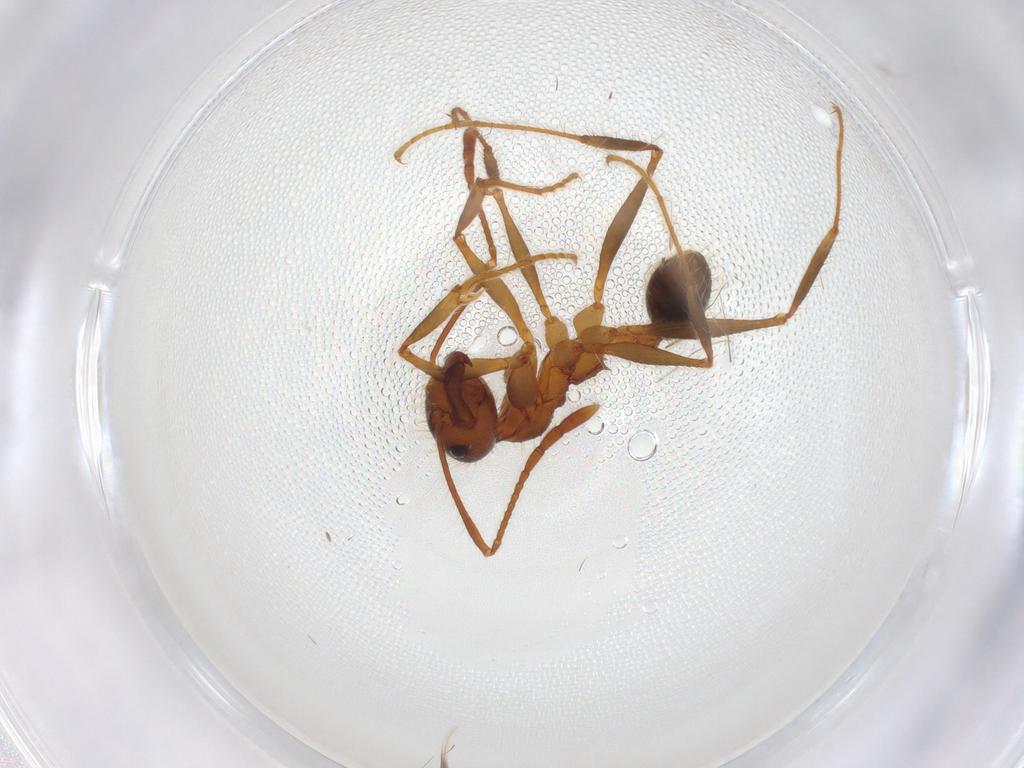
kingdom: Animalia
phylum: Arthropoda
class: Insecta
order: Hymenoptera
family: Formicidae
